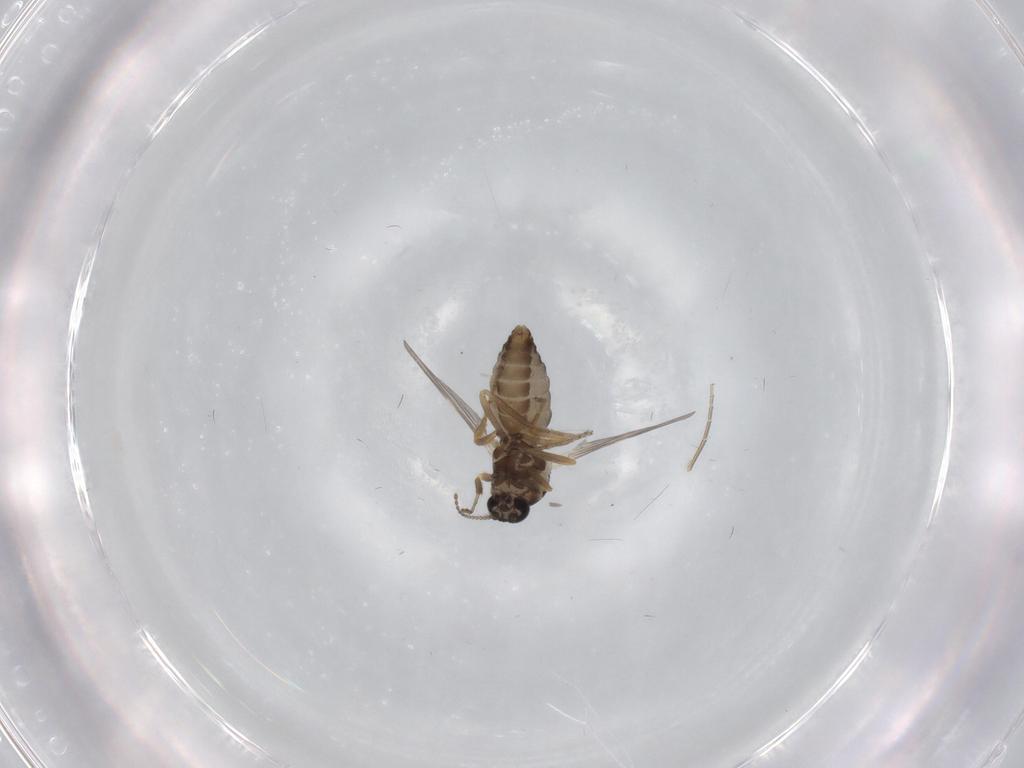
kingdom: Animalia
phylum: Arthropoda
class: Insecta
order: Diptera
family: Ceratopogonidae
